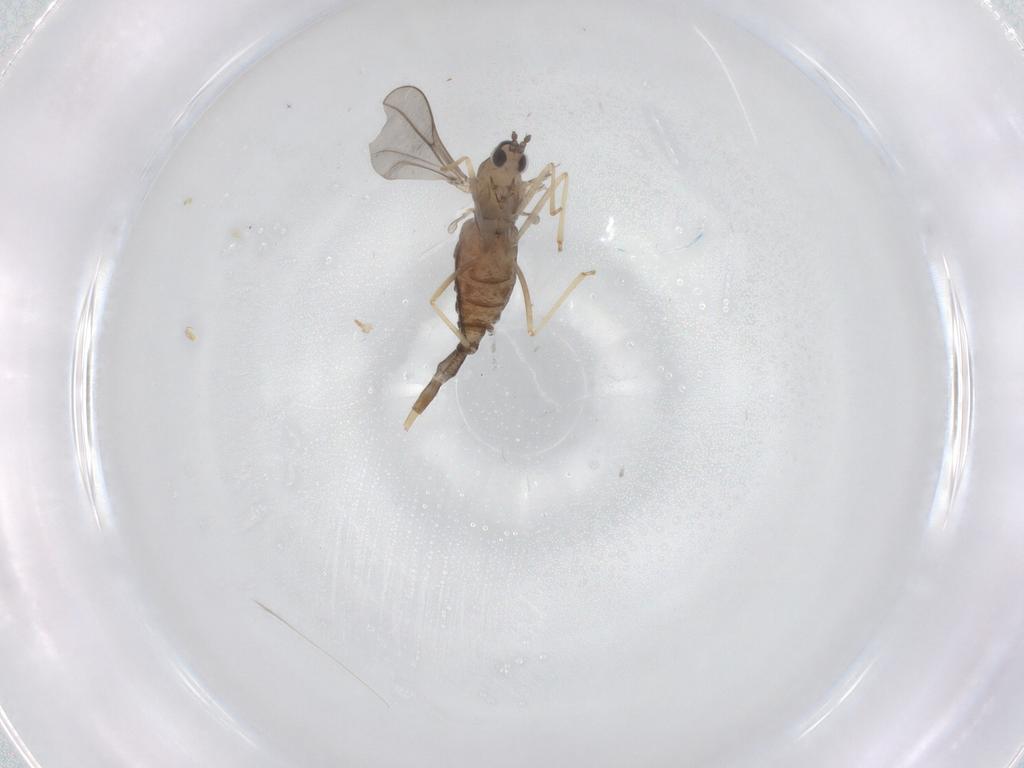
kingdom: Animalia
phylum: Arthropoda
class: Insecta
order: Diptera
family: Cecidomyiidae
